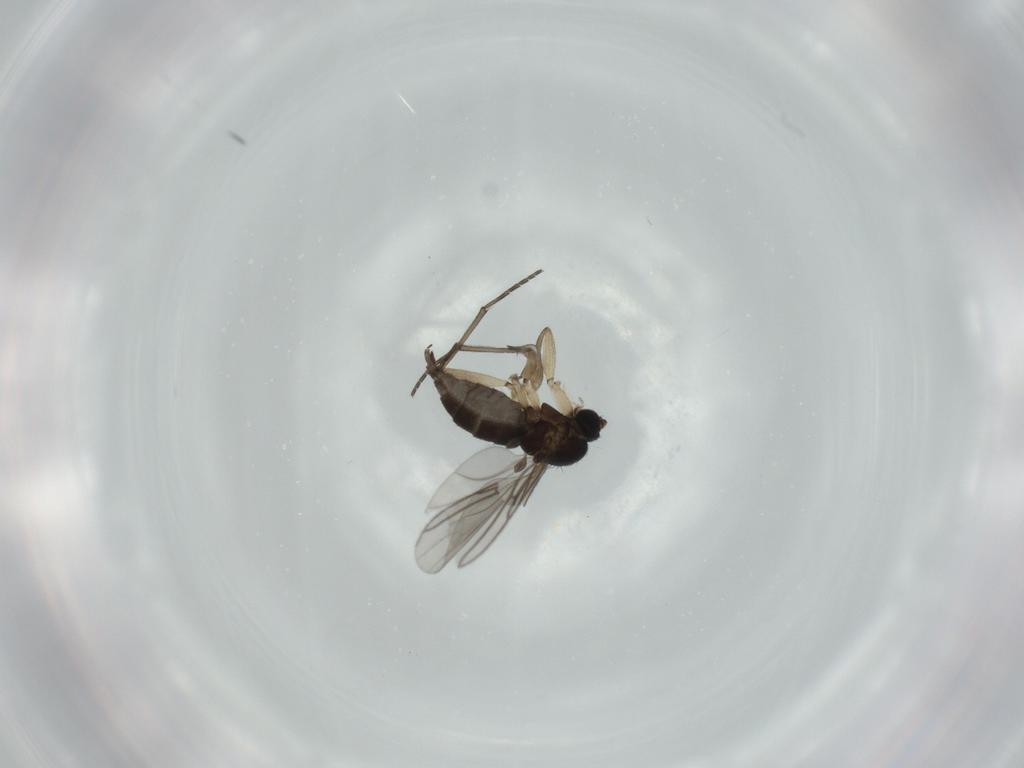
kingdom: Animalia
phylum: Arthropoda
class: Insecta
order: Diptera
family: Sciaridae
